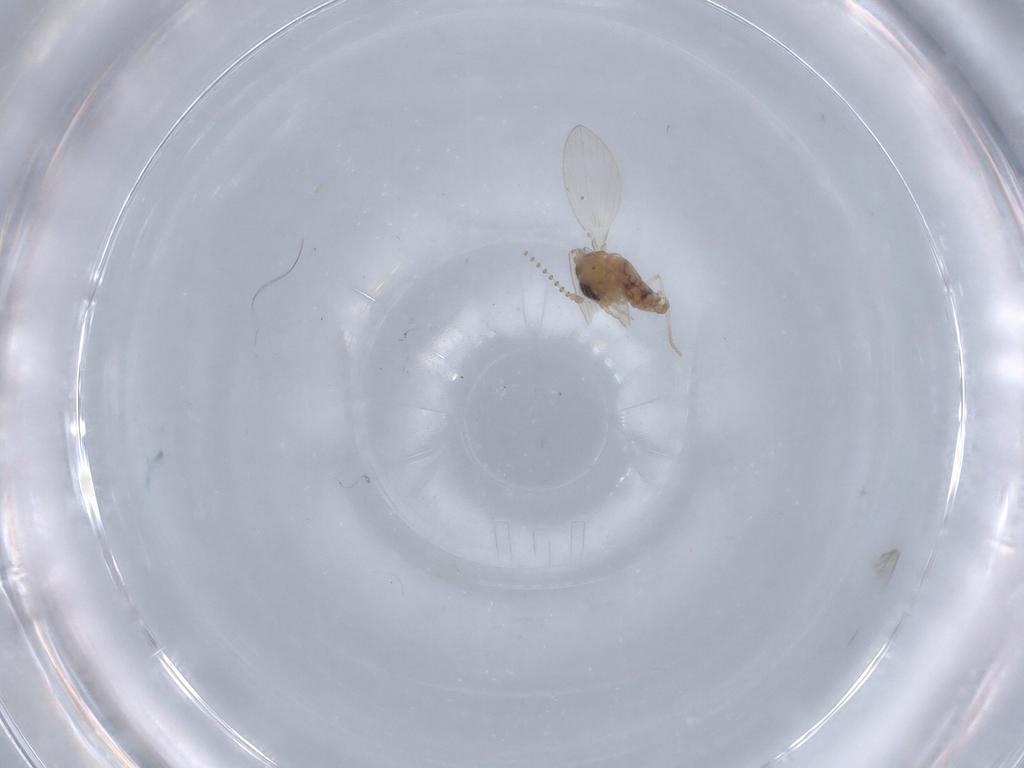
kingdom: Animalia
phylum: Arthropoda
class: Insecta
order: Diptera
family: Psychodidae
